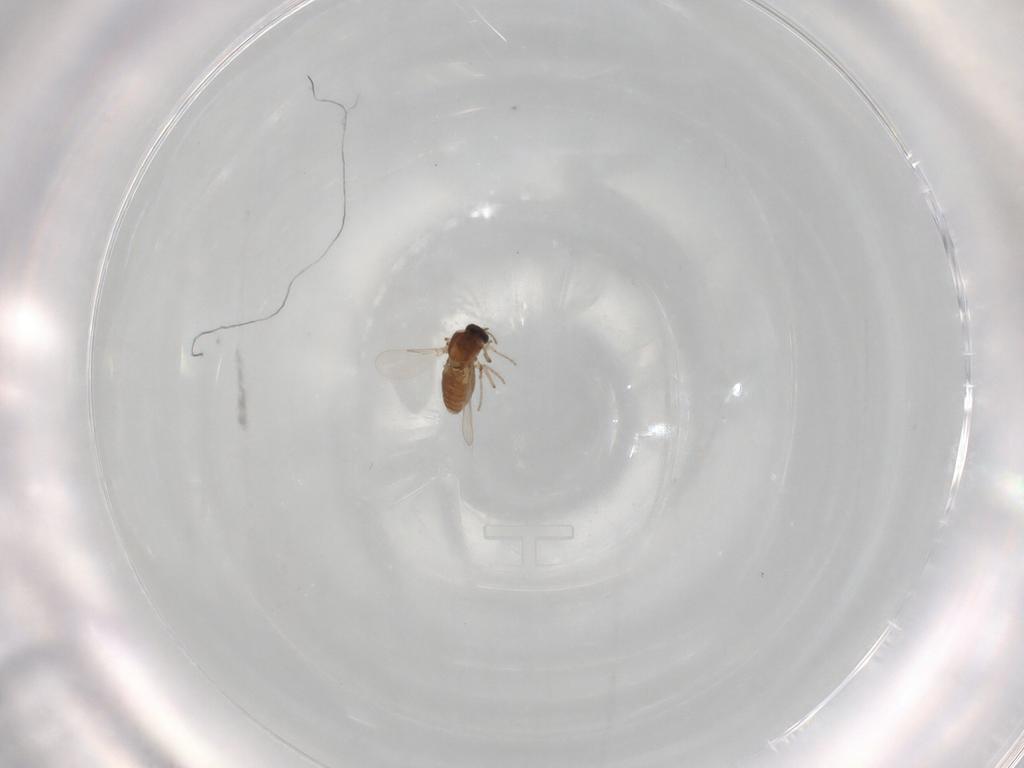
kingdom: Animalia
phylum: Arthropoda
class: Insecta
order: Diptera
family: Ceratopogonidae
